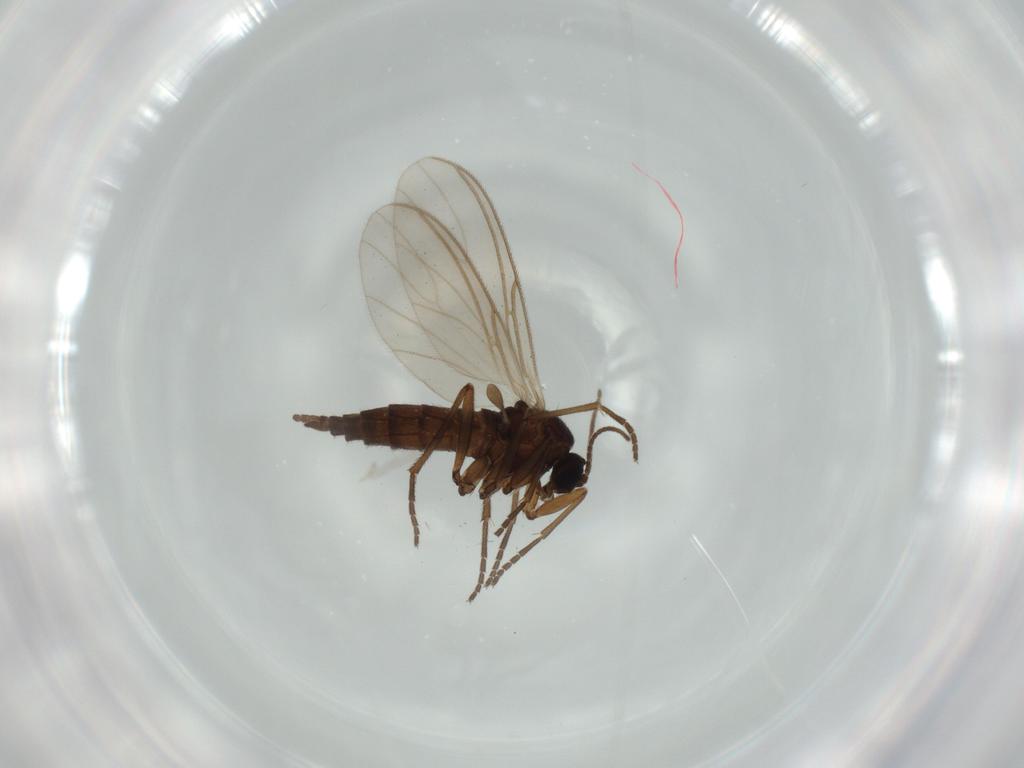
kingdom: Animalia
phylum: Arthropoda
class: Insecta
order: Diptera
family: Sciaridae
